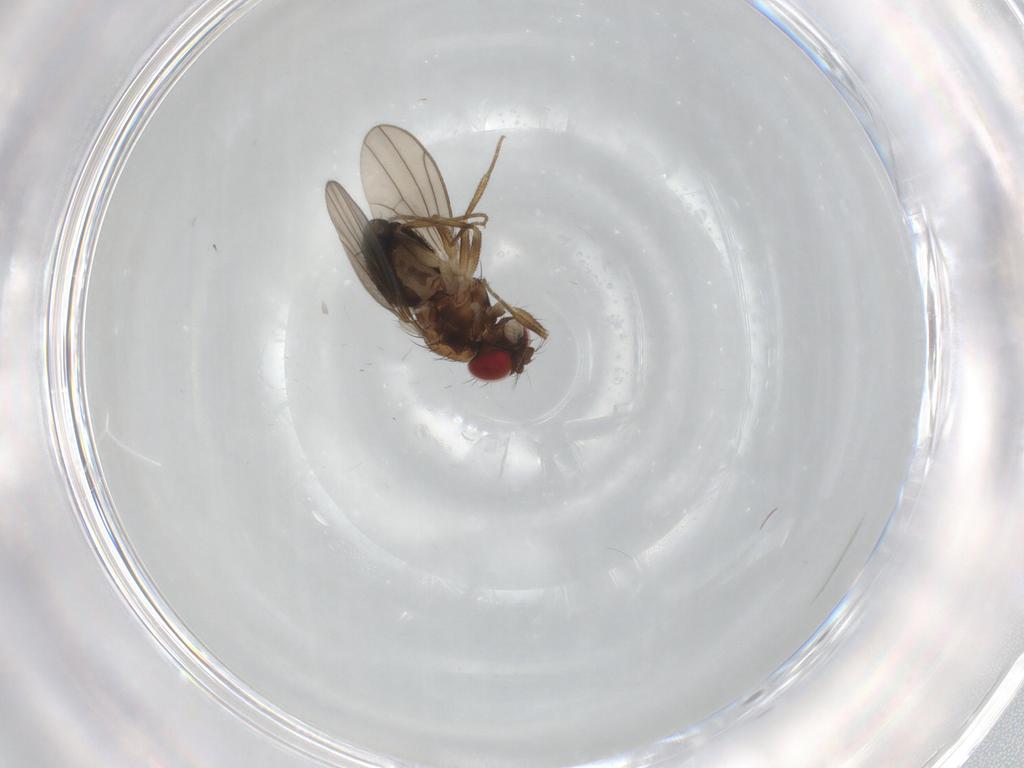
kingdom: Animalia
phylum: Arthropoda
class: Insecta
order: Diptera
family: Drosophilidae
